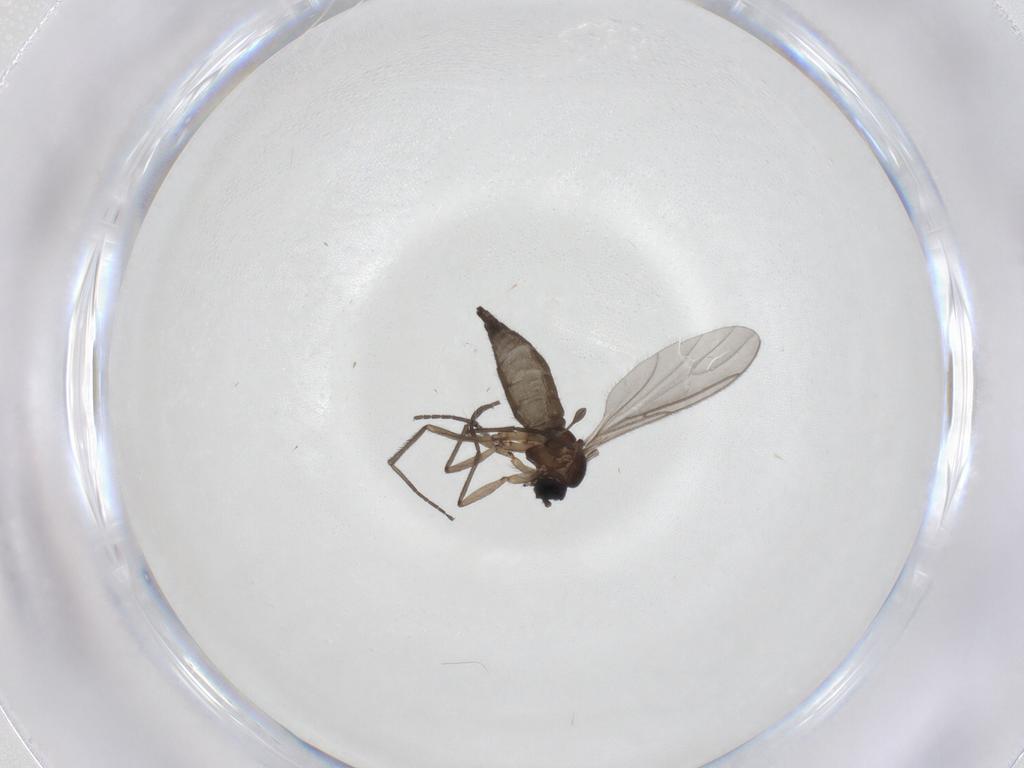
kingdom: Animalia
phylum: Arthropoda
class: Insecta
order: Diptera
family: Sciaridae
